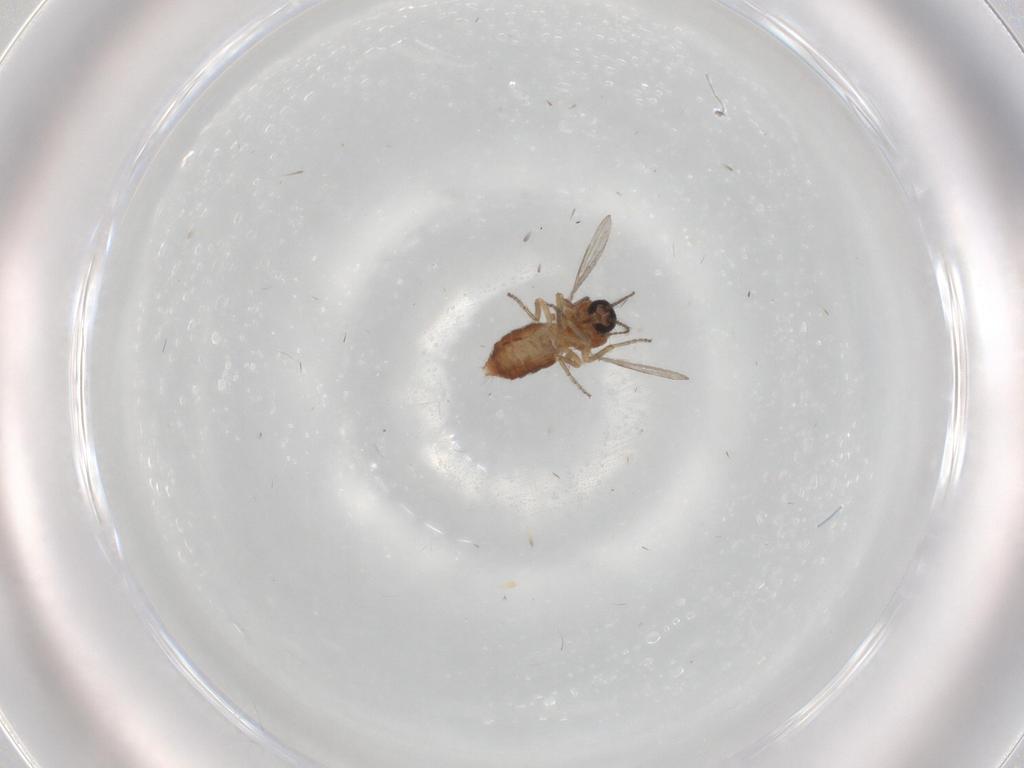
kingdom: Animalia
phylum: Arthropoda
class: Insecta
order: Diptera
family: Ceratopogonidae
